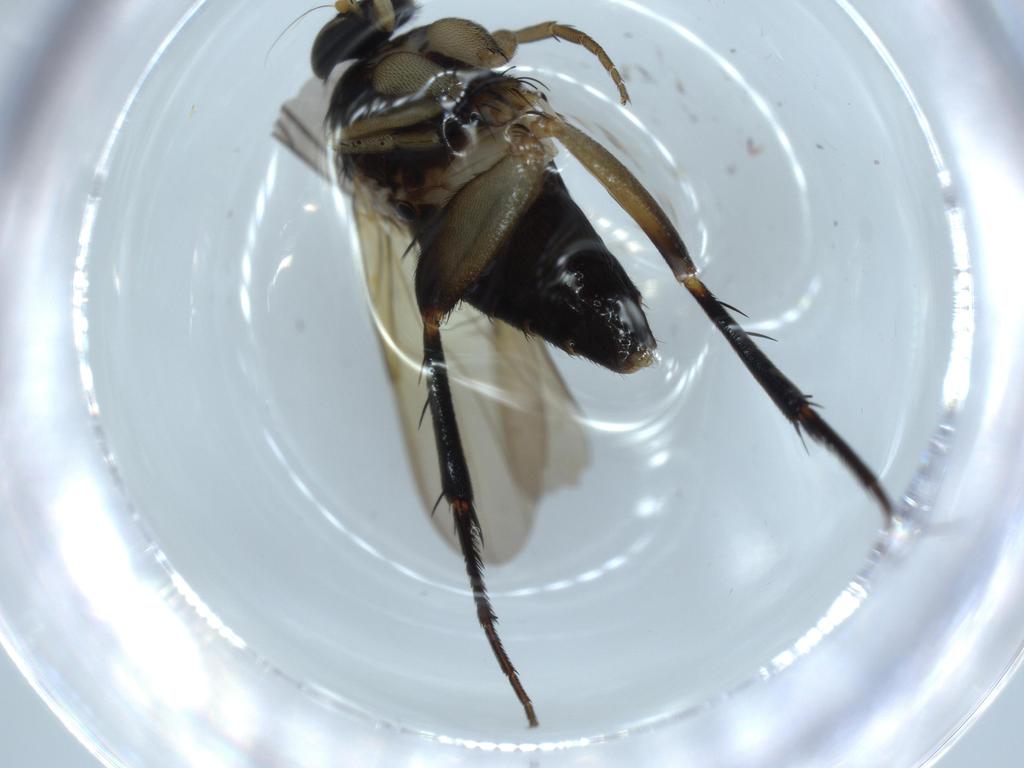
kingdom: Animalia
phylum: Arthropoda
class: Insecta
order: Diptera
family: Phoridae
